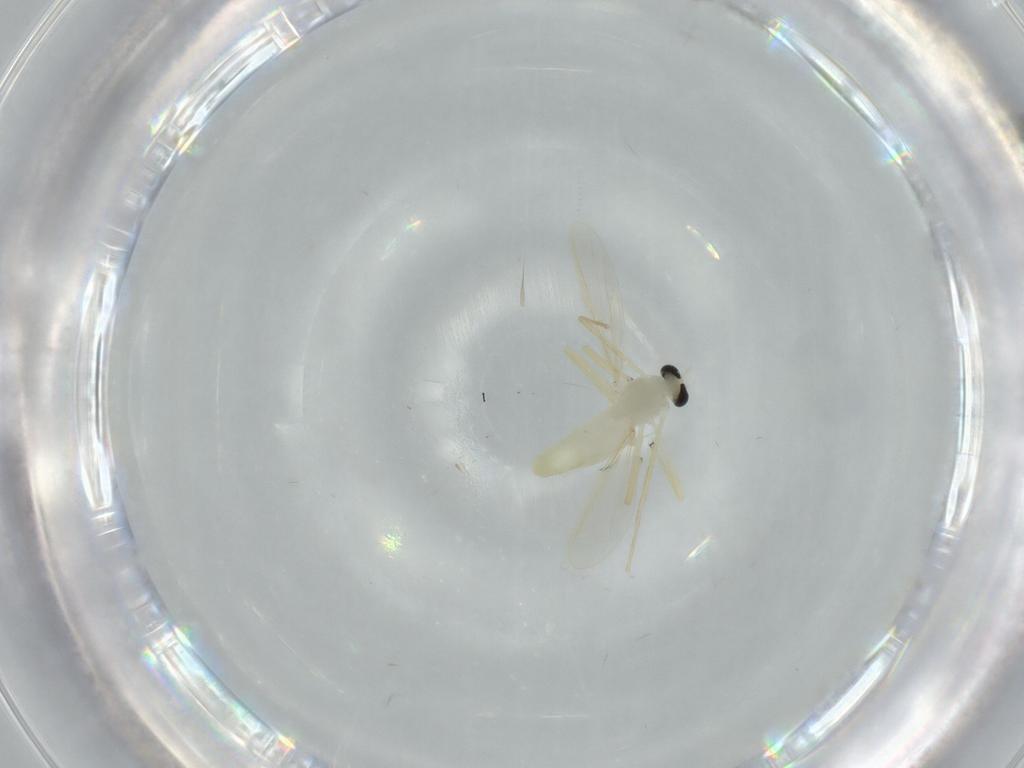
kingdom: Animalia
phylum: Arthropoda
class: Insecta
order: Diptera
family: Chironomidae
